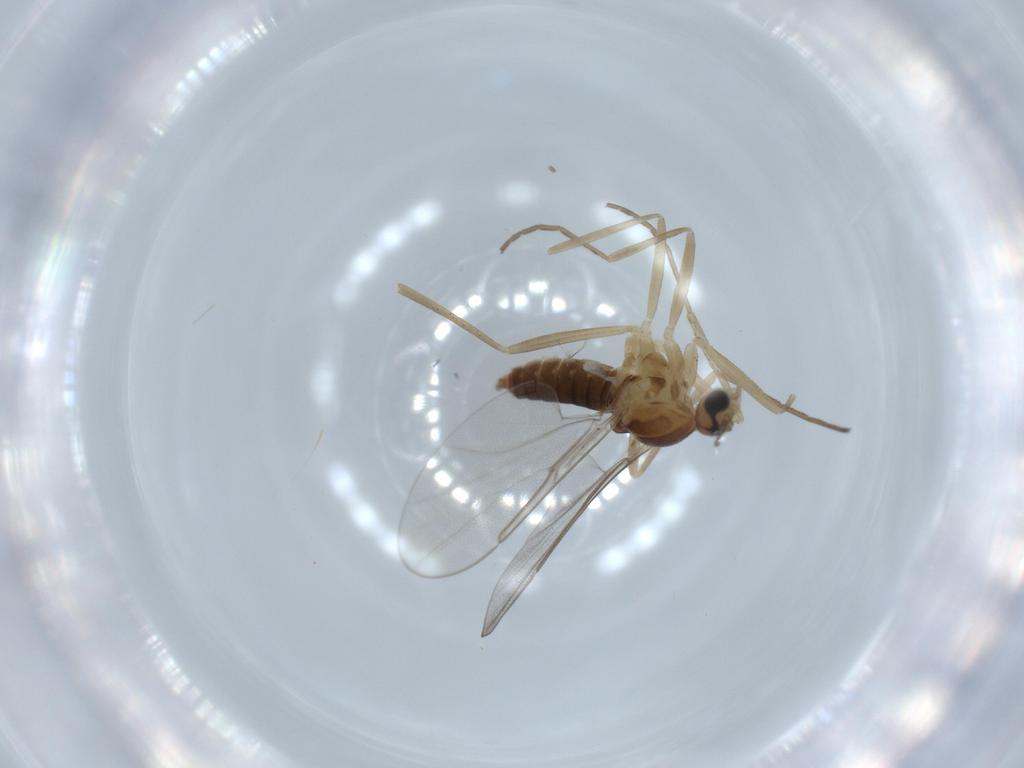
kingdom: Animalia
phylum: Arthropoda
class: Insecta
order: Diptera
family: Cecidomyiidae
